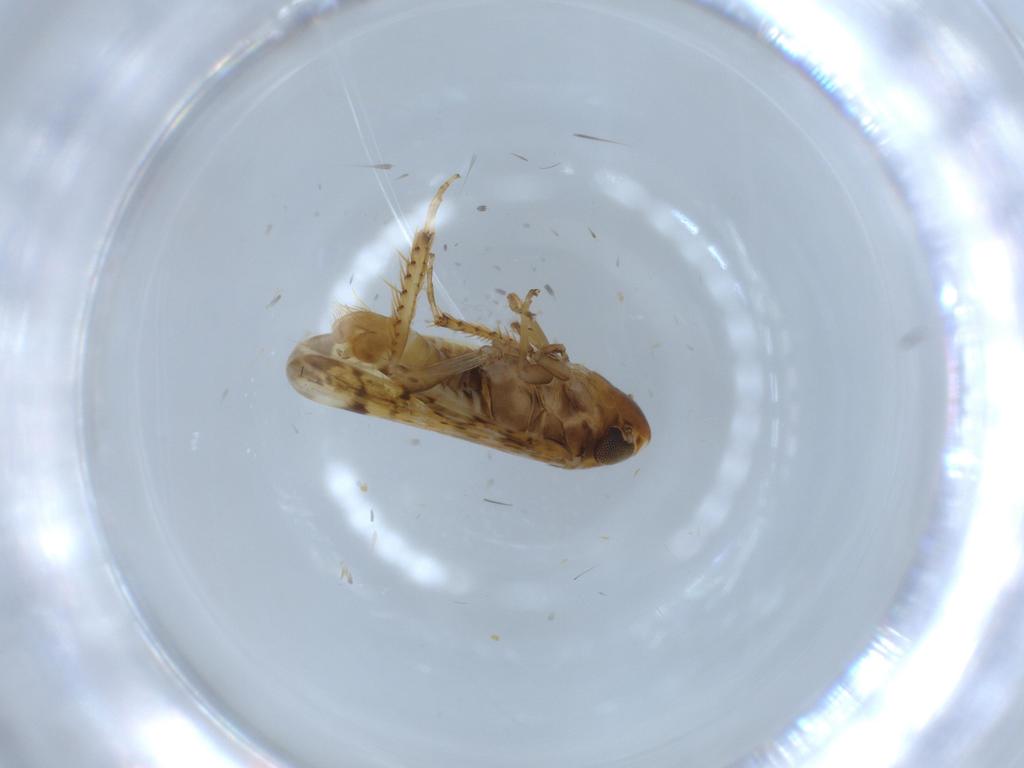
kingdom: Animalia
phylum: Arthropoda
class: Insecta
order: Hemiptera
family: Cicadellidae
